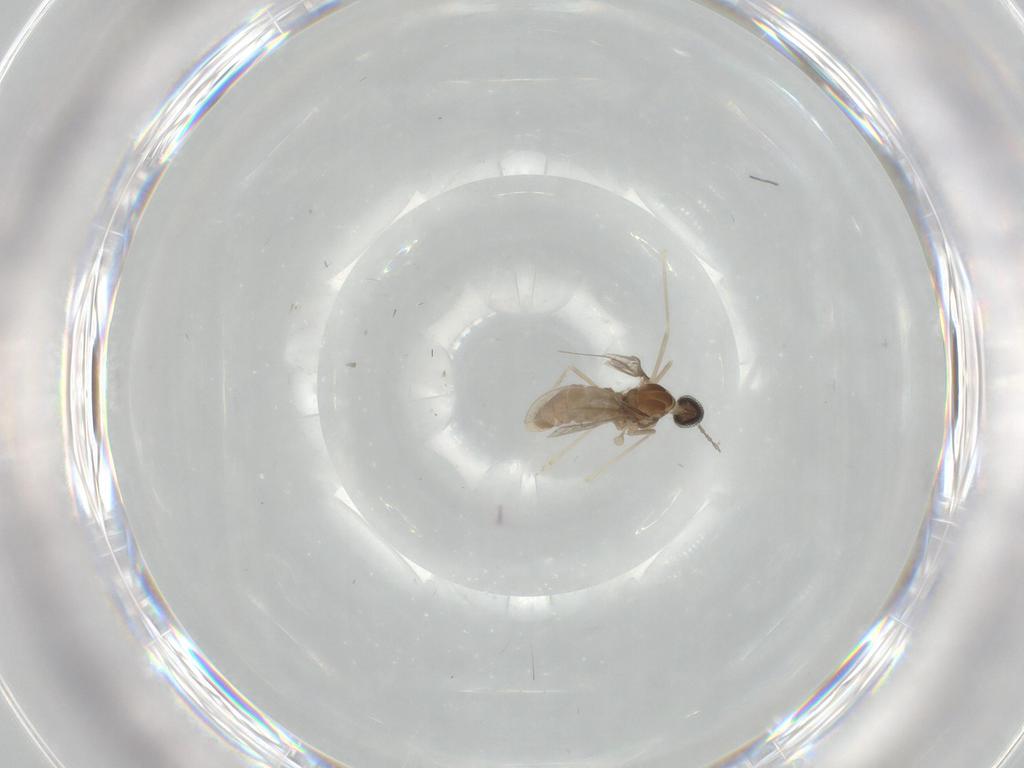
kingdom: Animalia
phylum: Arthropoda
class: Insecta
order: Diptera
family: Cecidomyiidae
